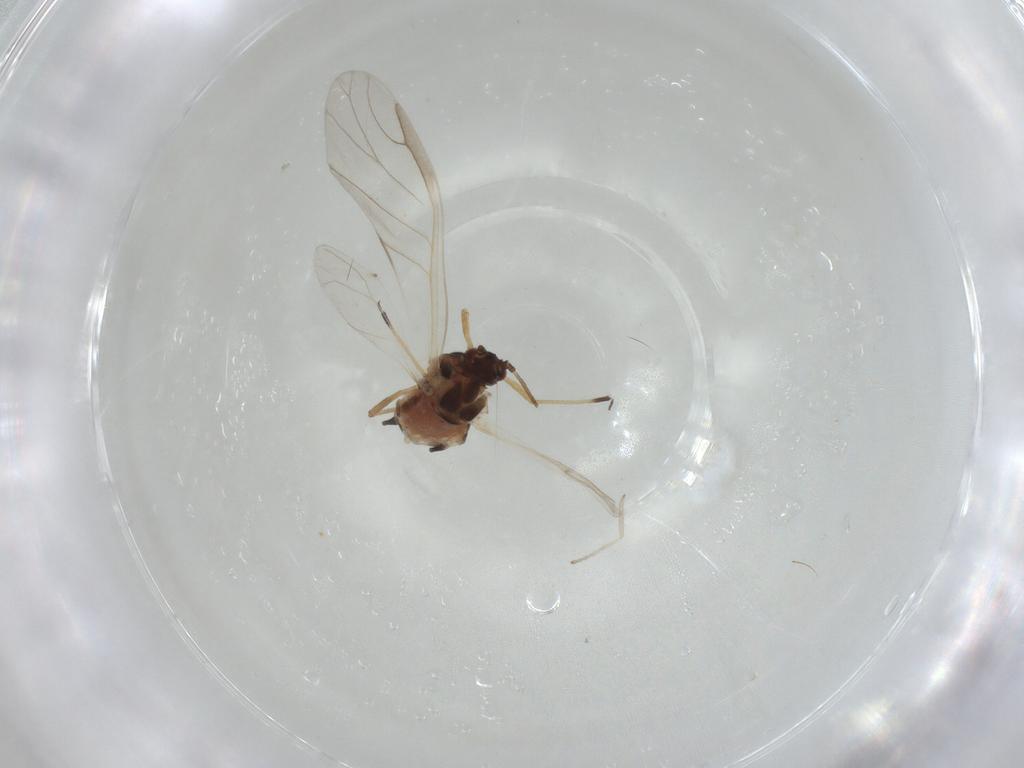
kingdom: Animalia
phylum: Arthropoda
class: Insecta
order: Hemiptera
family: Aphididae
